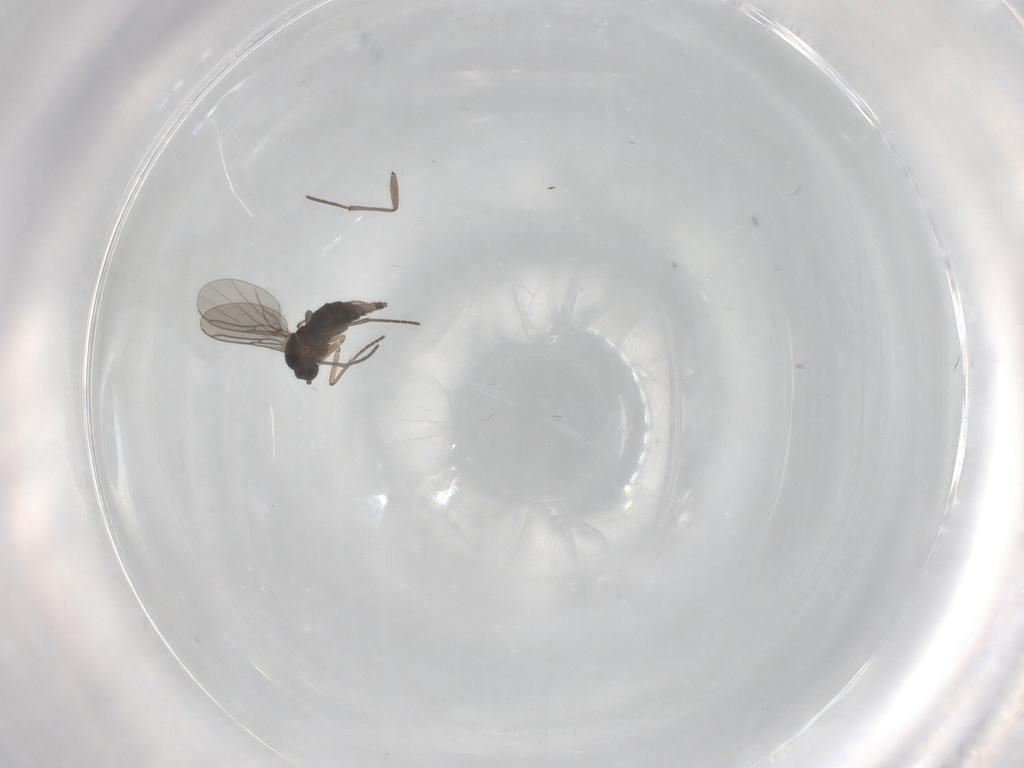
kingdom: Animalia
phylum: Arthropoda
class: Insecta
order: Diptera
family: Sciaridae
